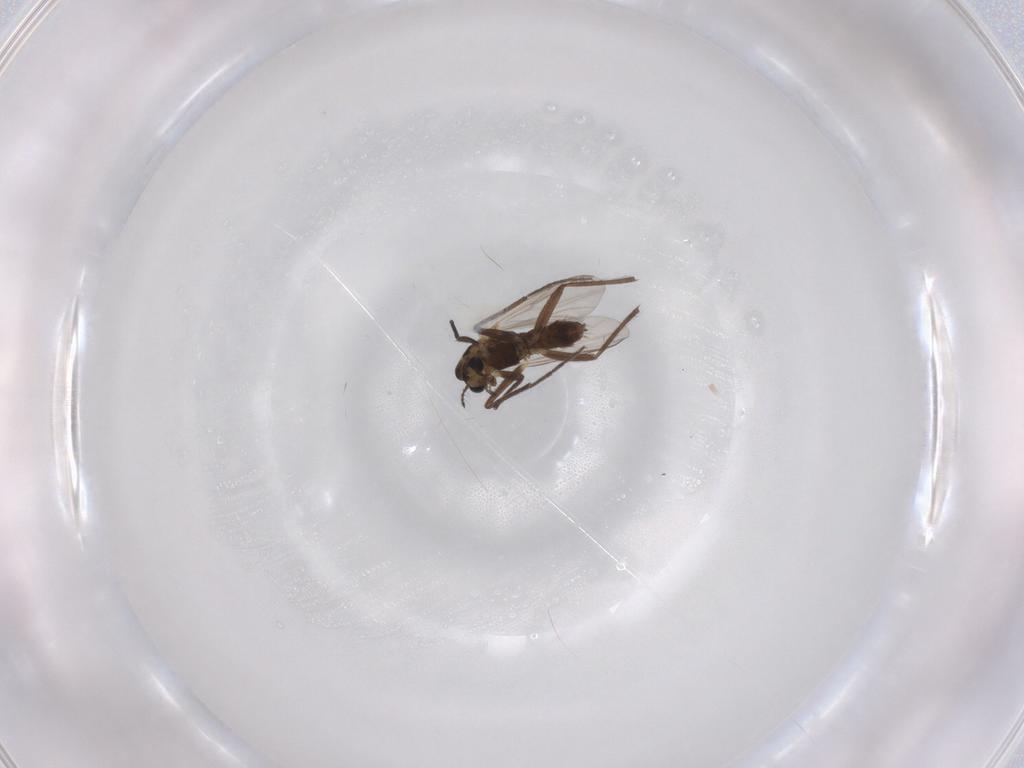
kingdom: Animalia
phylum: Arthropoda
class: Insecta
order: Diptera
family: Chironomidae
